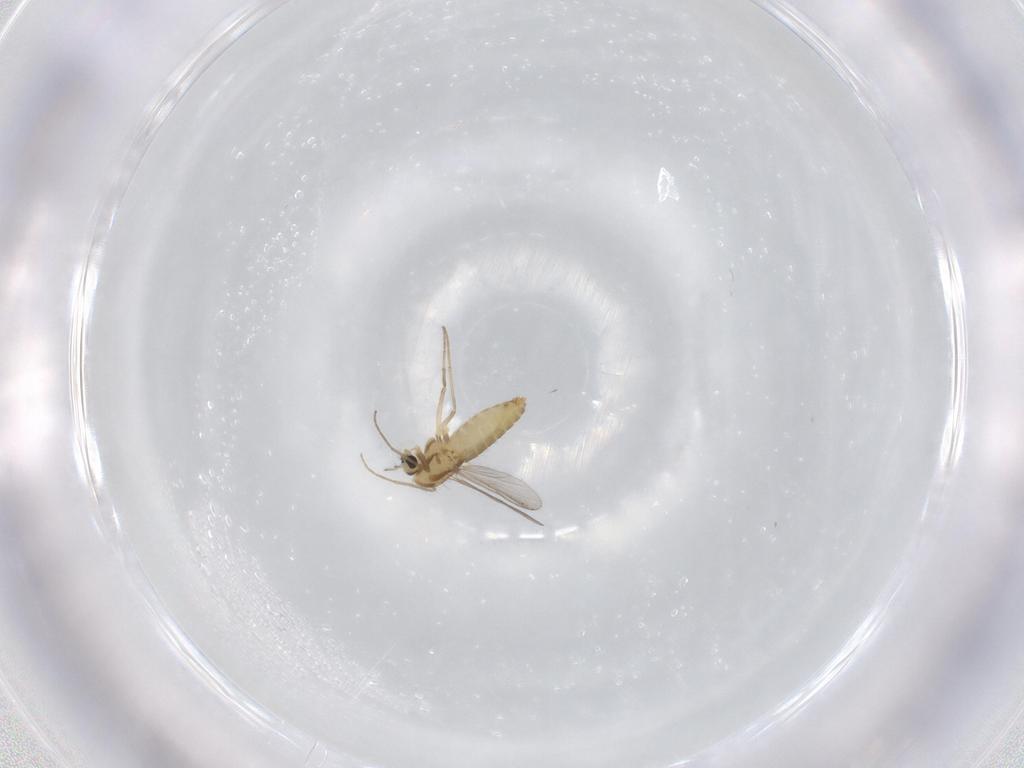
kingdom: Animalia
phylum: Arthropoda
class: Insecta
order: Diptera
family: Chironomidae
